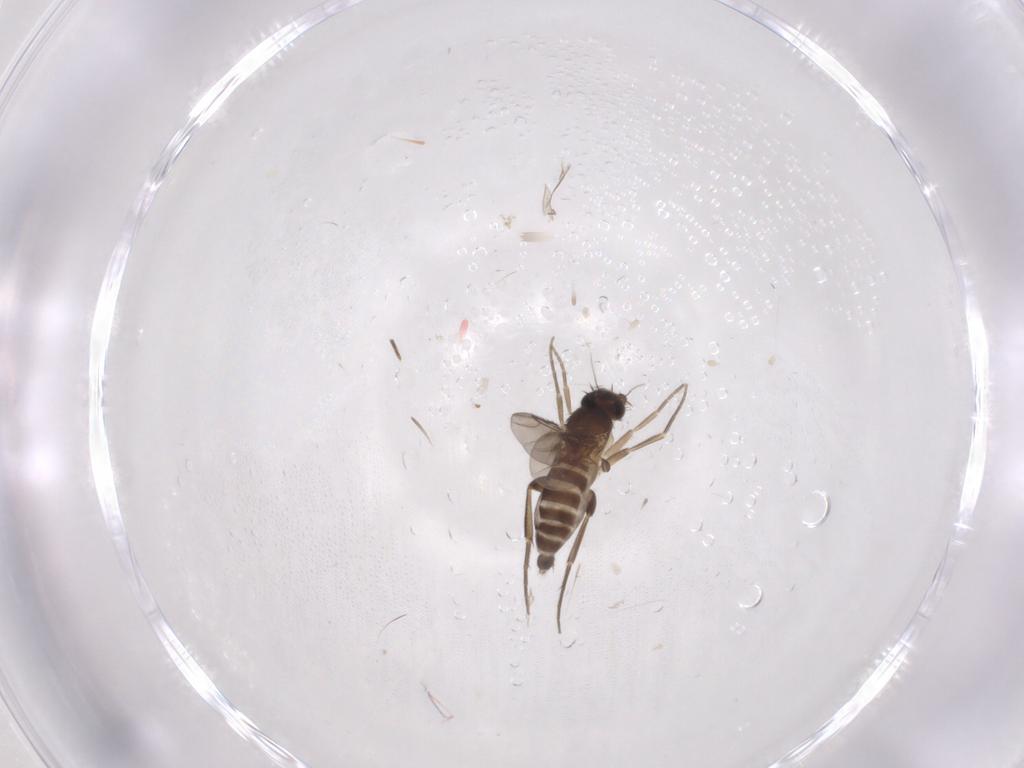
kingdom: Animalia
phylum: Arthropoda
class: Insecta
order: Diptera
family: Phoridae
